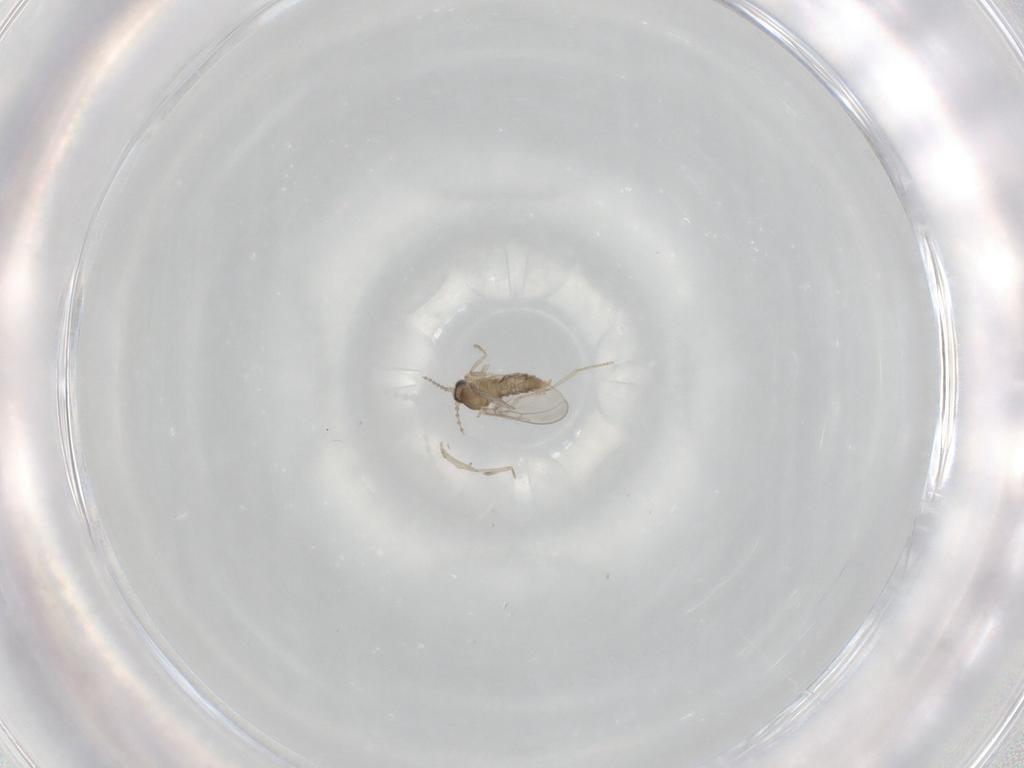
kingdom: Animalia
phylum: Arthropoda
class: Insecta
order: Diptera
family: Cecidomyiidae
